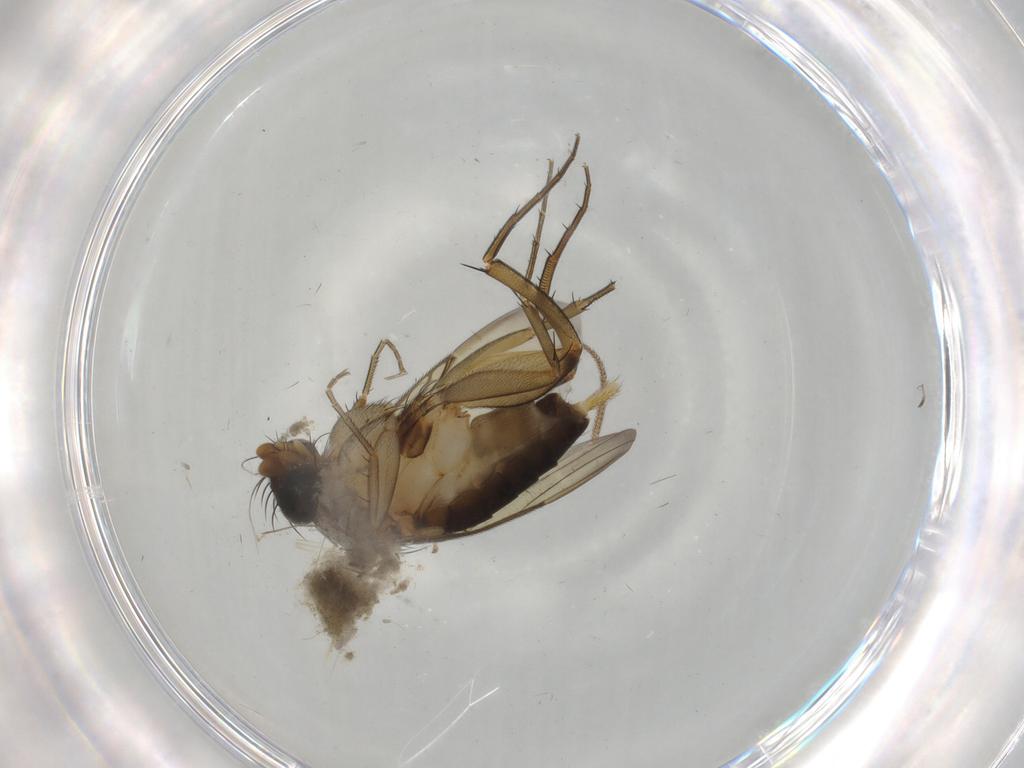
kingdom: Animalia
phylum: Arthropoda
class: Insecta
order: Diptera
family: Phoridae
